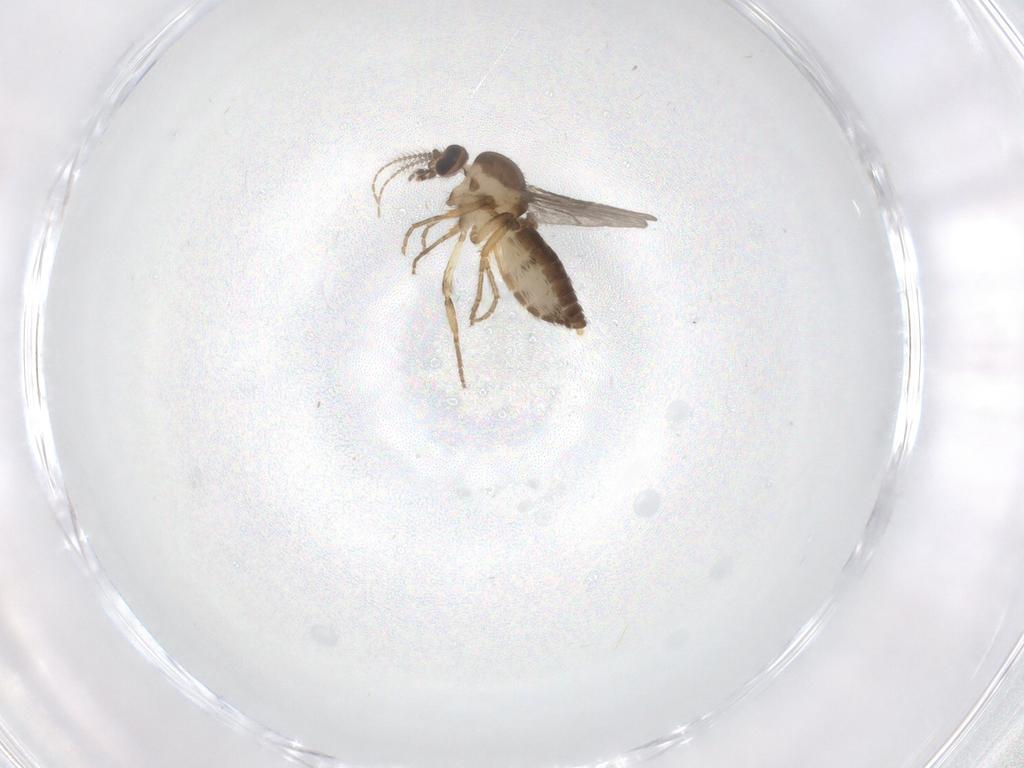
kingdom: Animalia
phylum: Arthropoda
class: Insecta
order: Diptera
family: Ceratopogonidae
